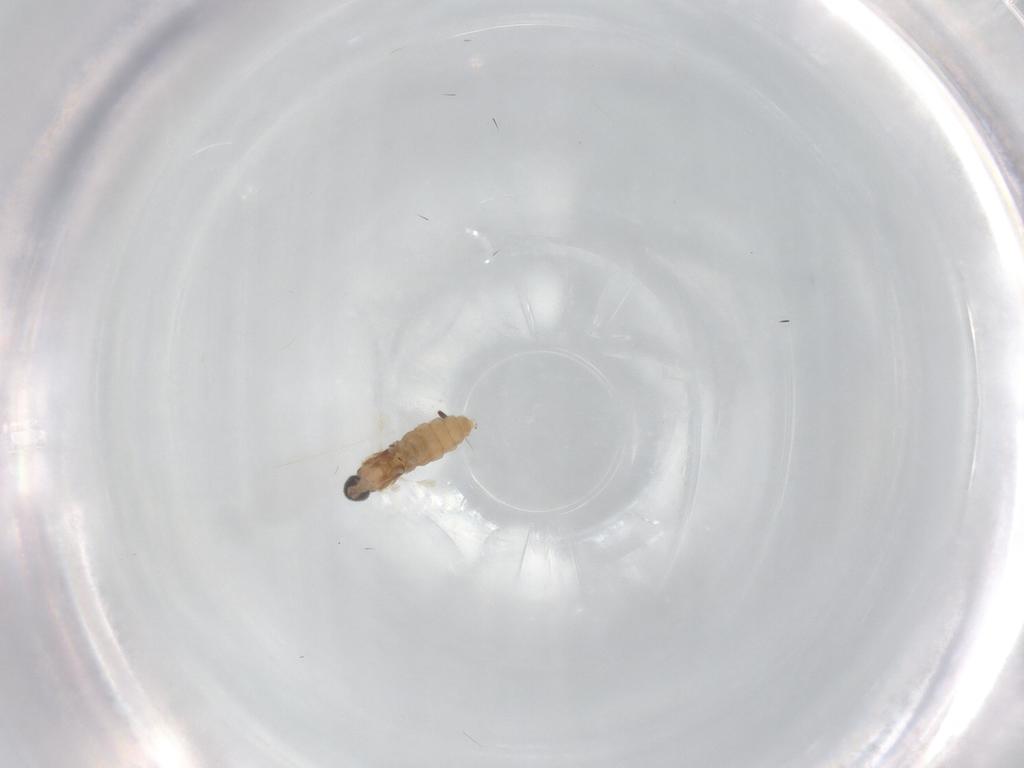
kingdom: Animalia
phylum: Arthropoda
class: Insecta
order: Diptera
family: Cecidomyiidae
